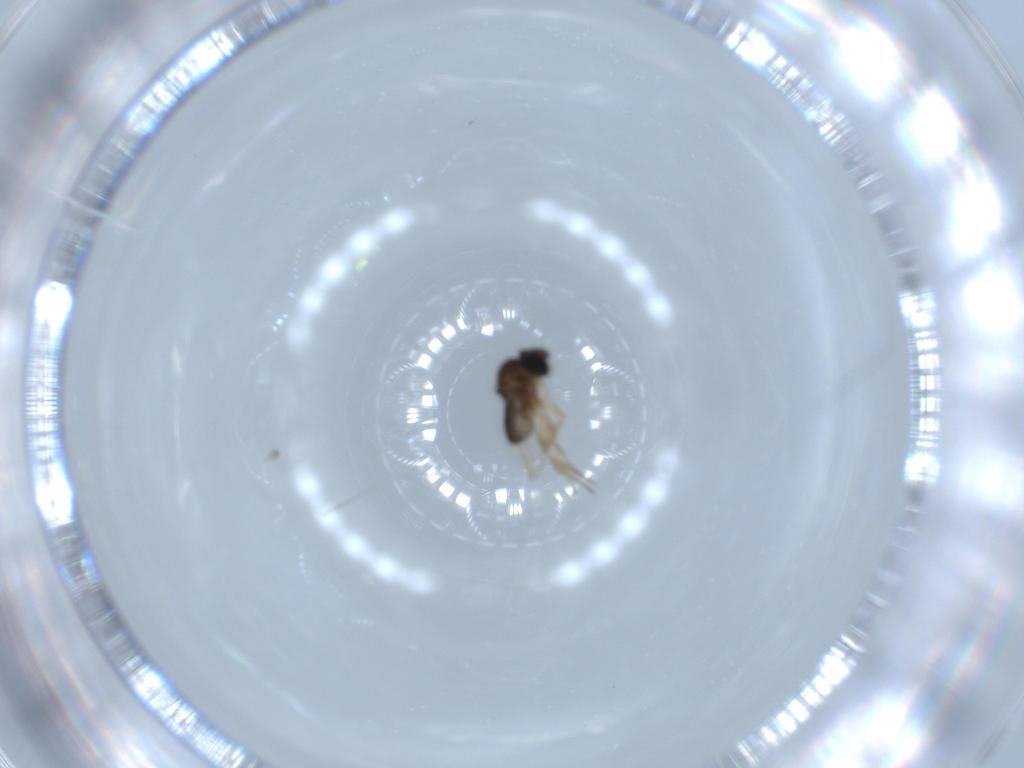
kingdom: Animalia
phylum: Arthropoda
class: Insecta
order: Diptera
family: Phoridae
